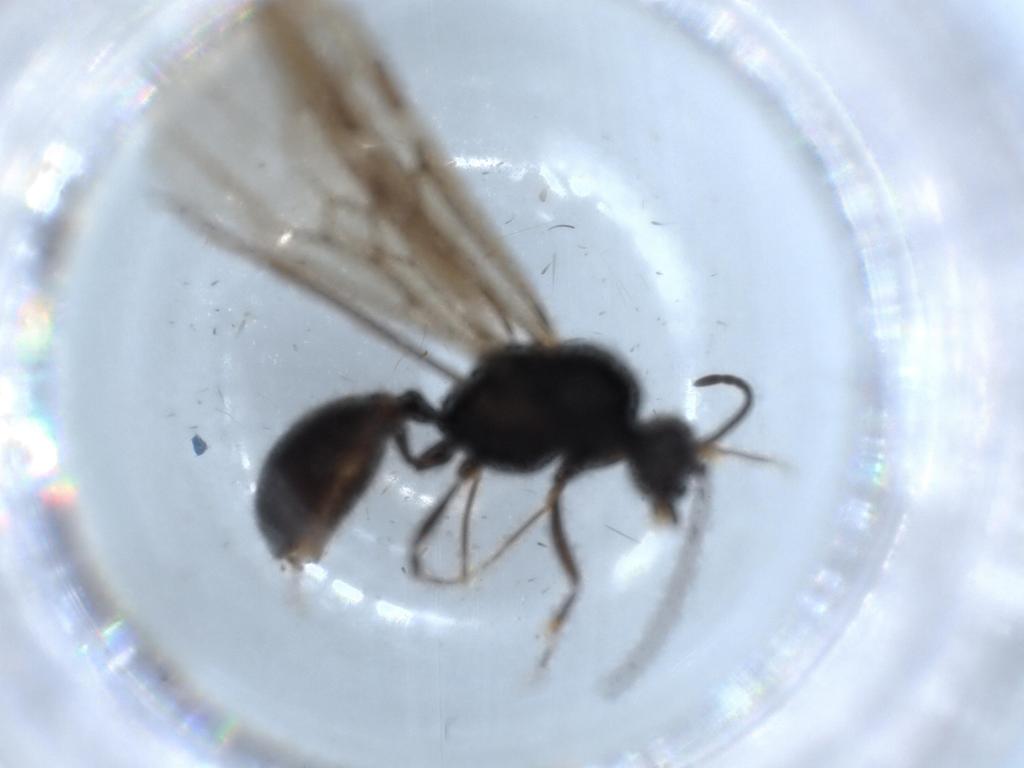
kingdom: Animalia
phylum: Arthropoda
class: Insecta
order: Hymenoptera
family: Formicidae
